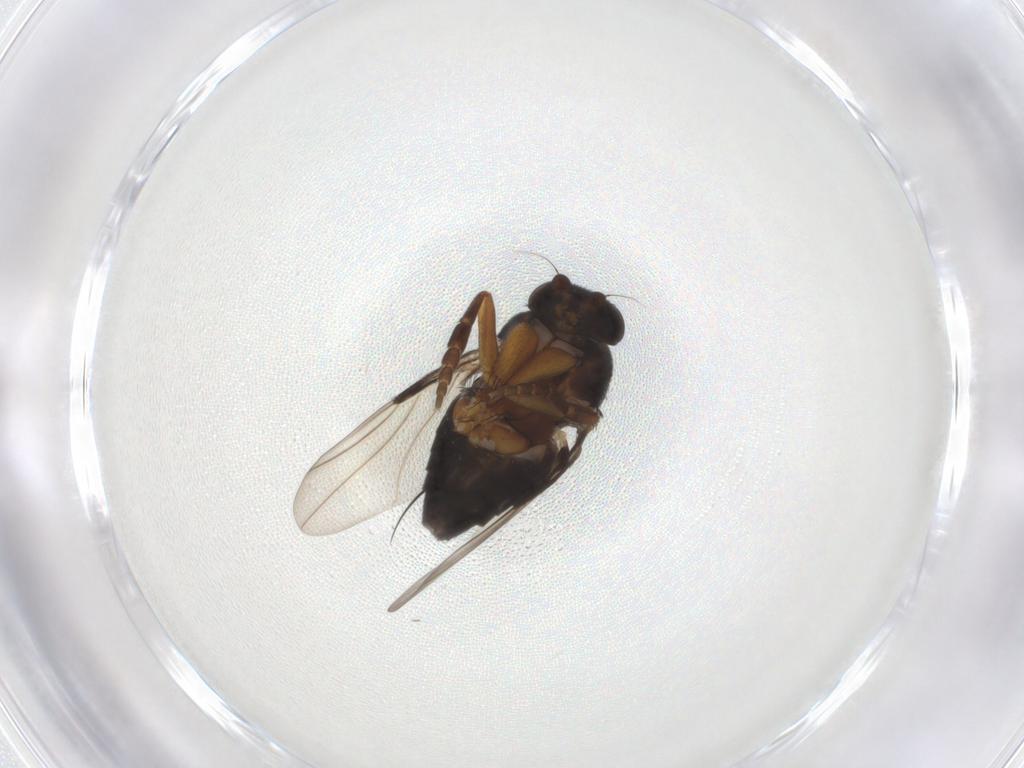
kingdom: Animalia
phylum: Arthropoda
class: Insecta
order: Diptera
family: Phoridae
